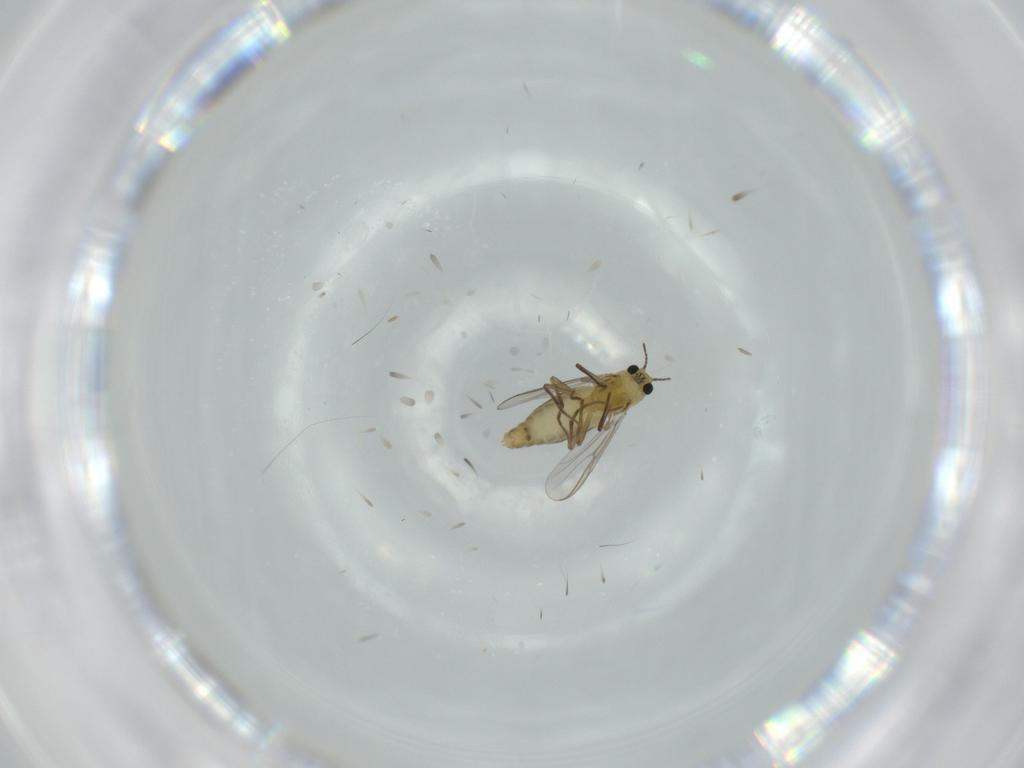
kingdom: Animalia
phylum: Arthropoda
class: Insecta
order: Diptera
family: Chironomidae
